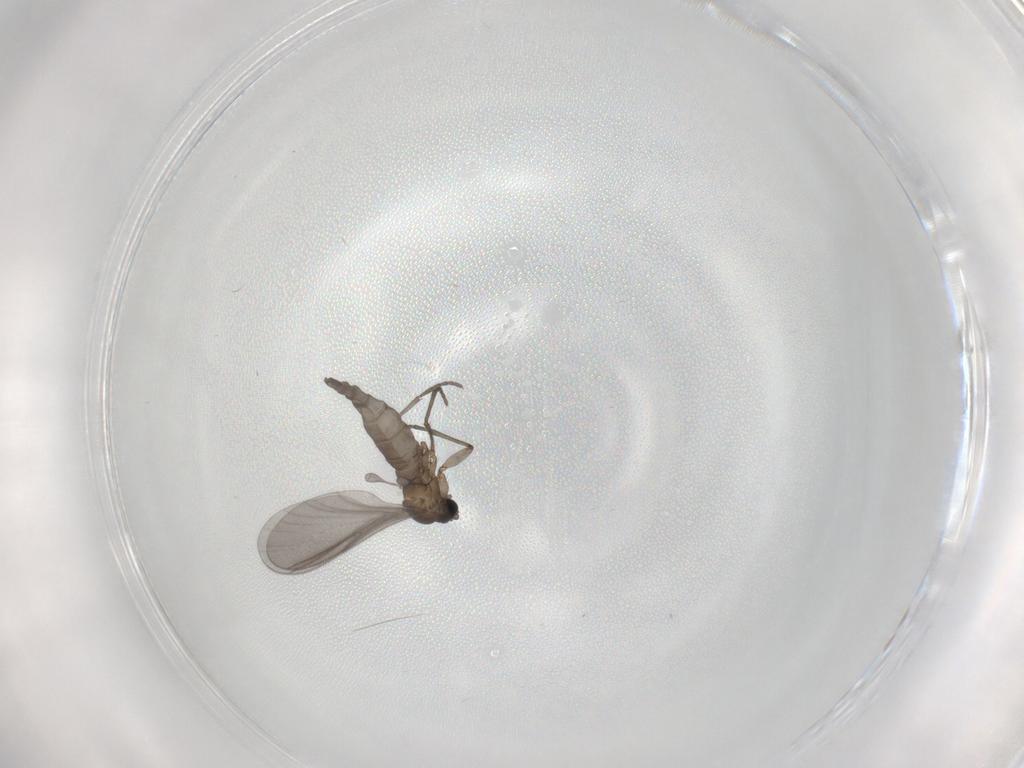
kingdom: Animalia
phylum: Arthropoda
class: Insecta
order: Diptera
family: Sciaridae
